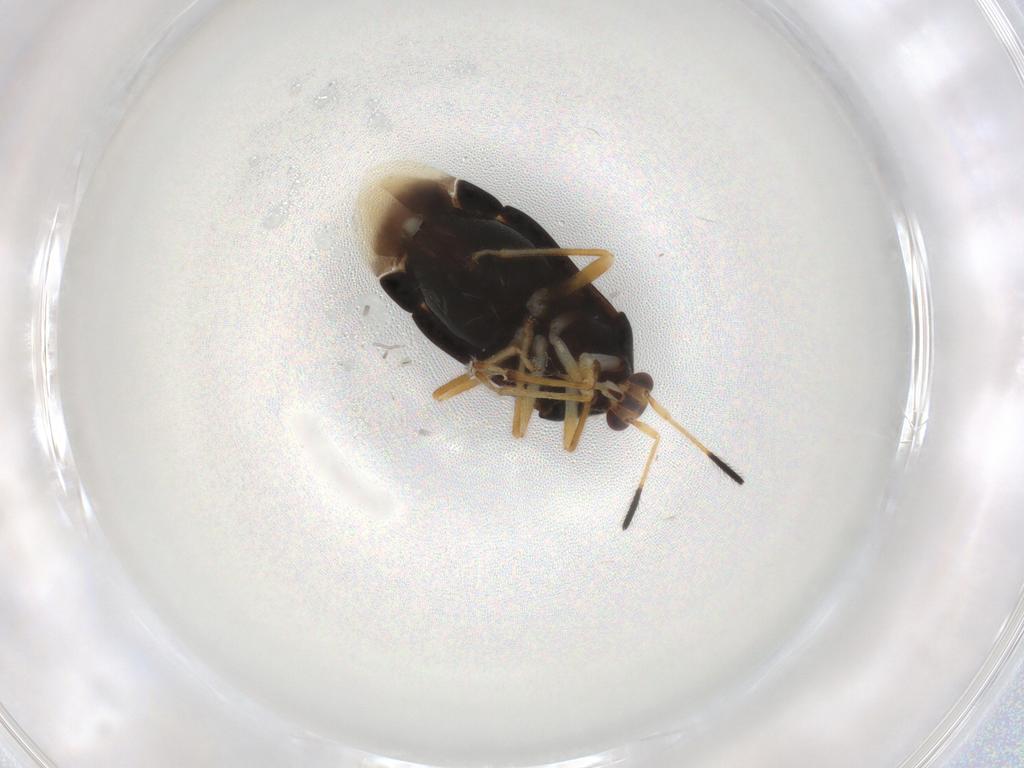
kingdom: Animalia
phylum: Arthropoda
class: Insecta
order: Hemiptera
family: Miridae
